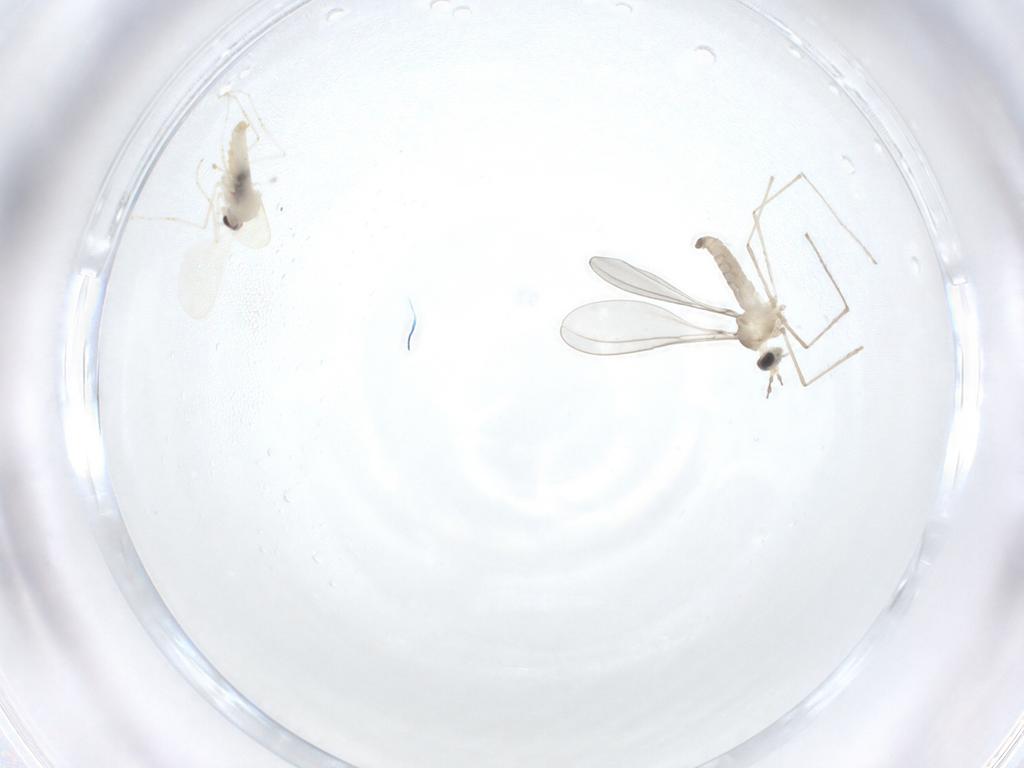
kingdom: Animalia
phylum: Arthropoda
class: Insecta
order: Diptera
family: Cecidomyiidae
